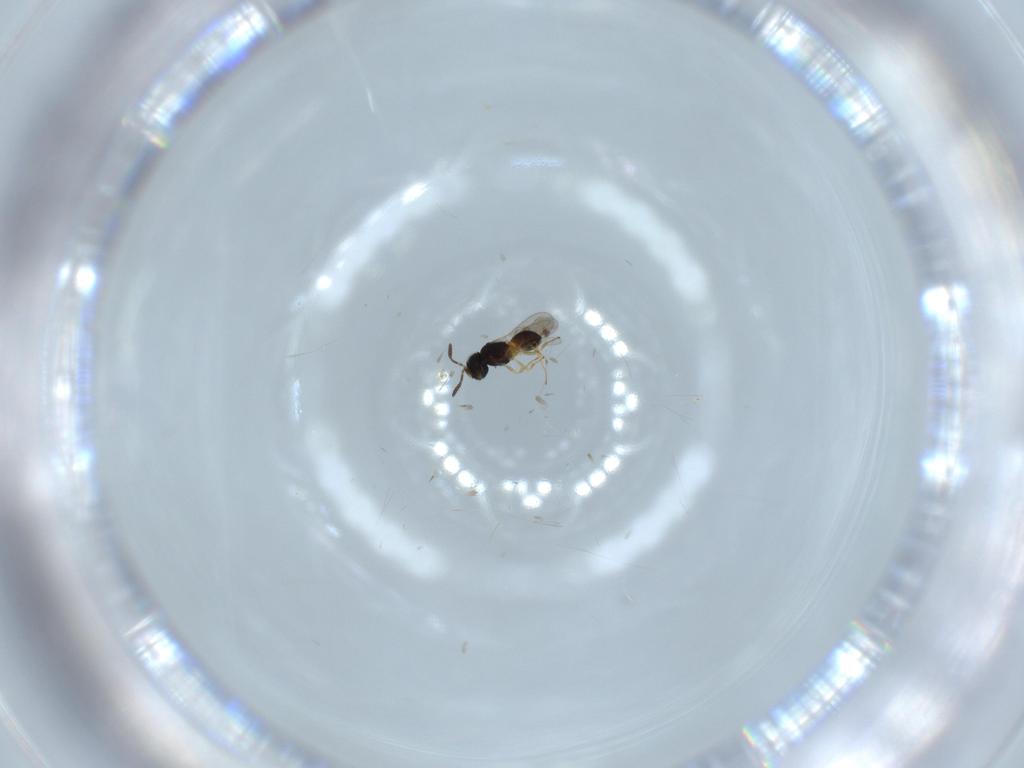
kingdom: Animalia
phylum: Arthropoda
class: Insecta
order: Hymenoptera
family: Scelionidae
